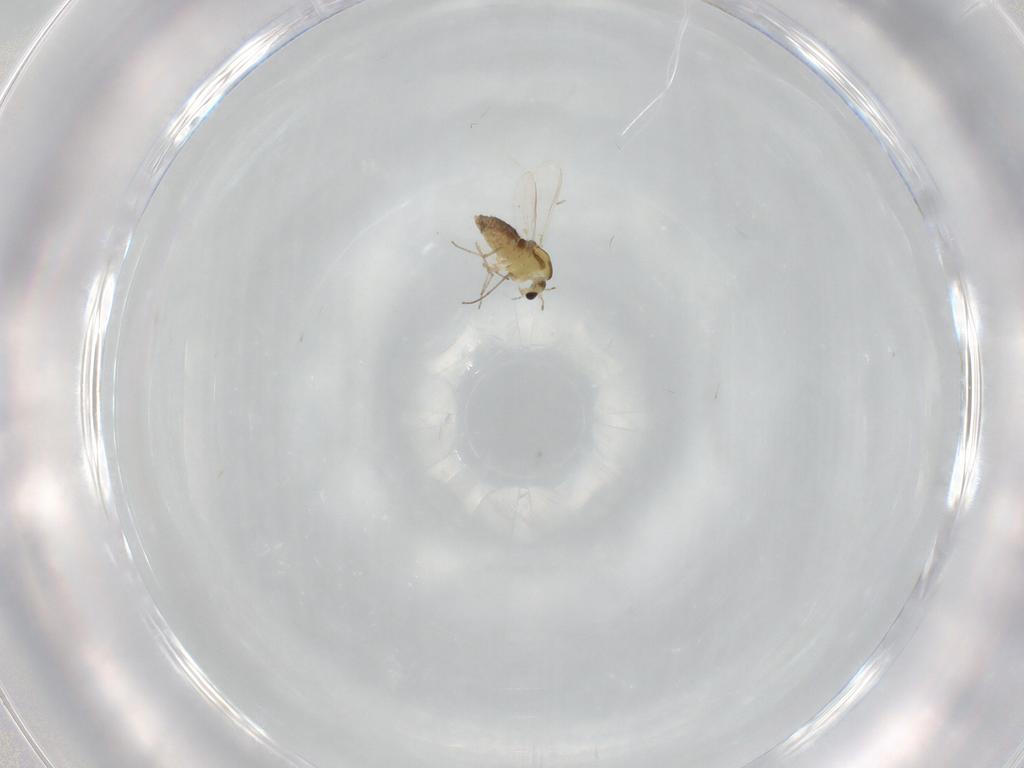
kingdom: Animalia
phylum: Arthropoda
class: Insecta
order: Diptera
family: Chironomidae
